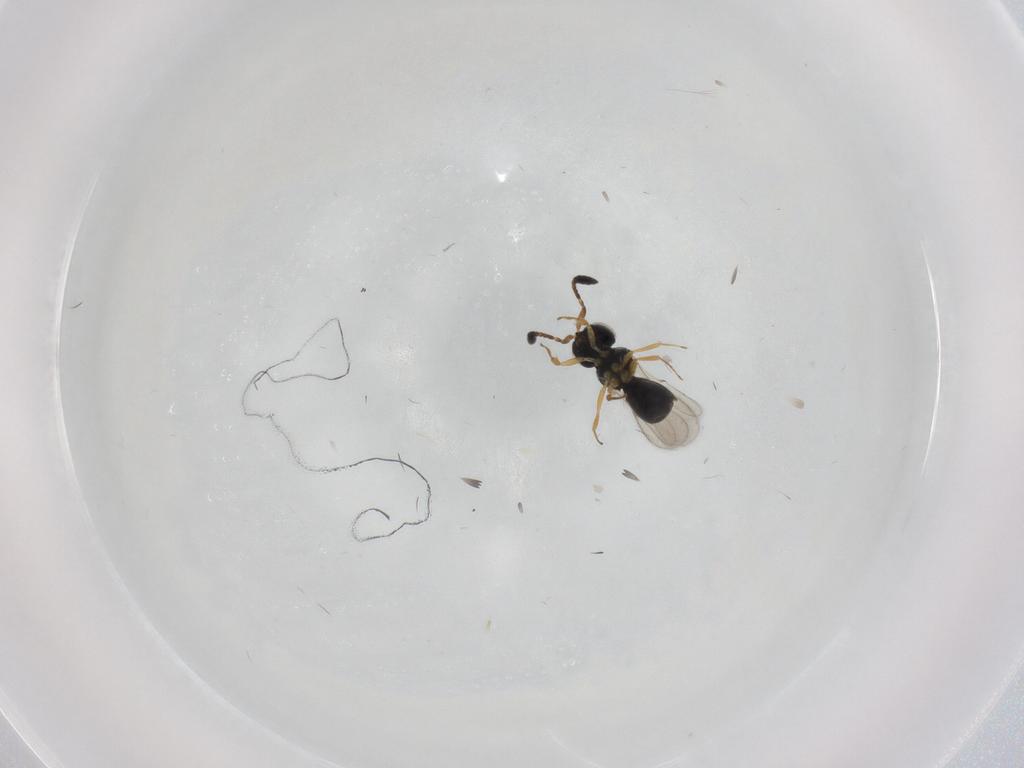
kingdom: Animalia
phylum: Arthropoda
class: Insecta
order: Hymenoptera
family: Scelionidae
